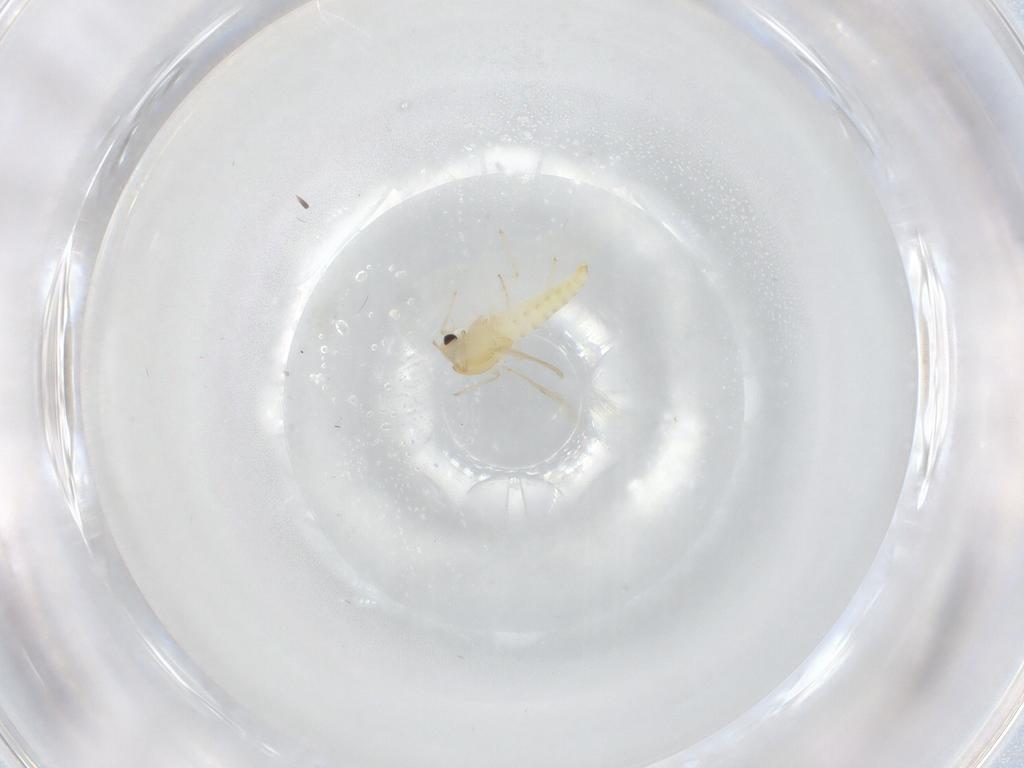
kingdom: Animalia
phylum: Arthropoda
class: Insecta
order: Diptera
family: Chironomidae
